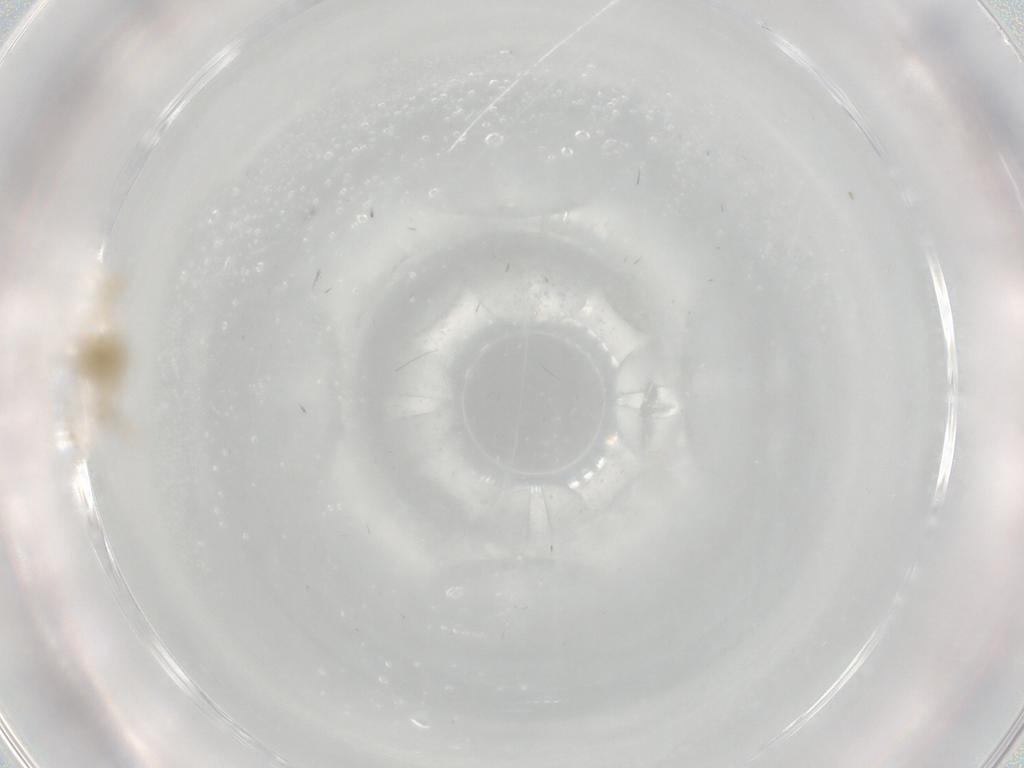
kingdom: Animalia
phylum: Arthropoda
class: Insecta
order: Diptera
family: Chironomidae
